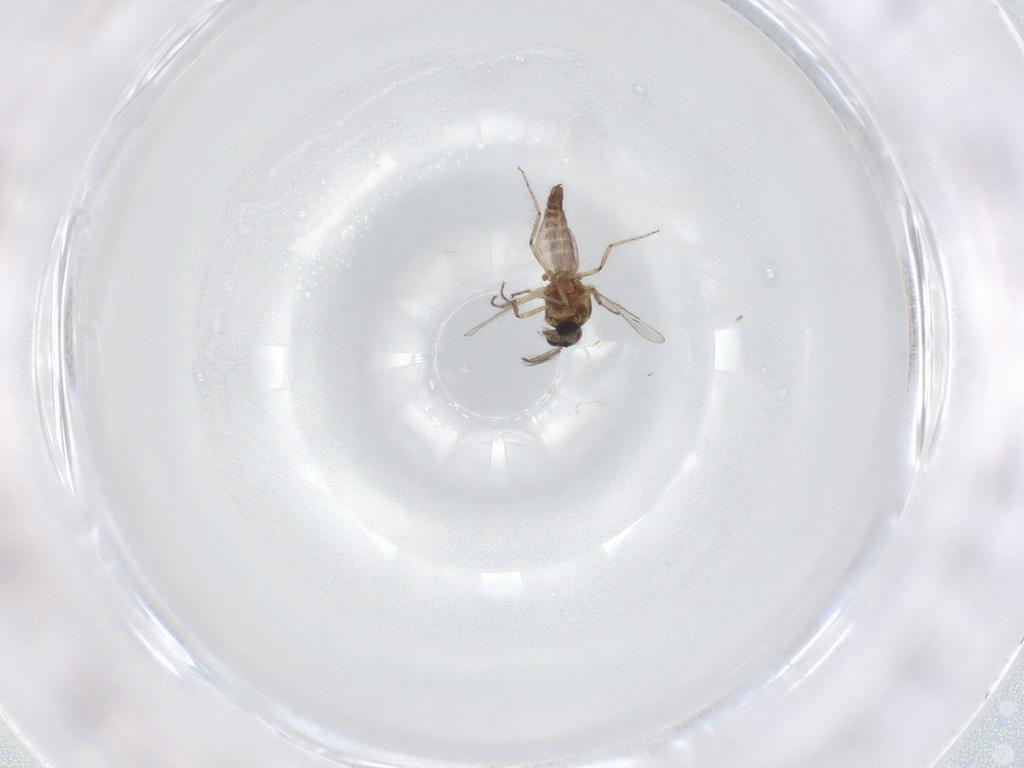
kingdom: Animalia
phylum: Arthropoda
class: Insecta
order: Diptera
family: Ceratopogonidae
